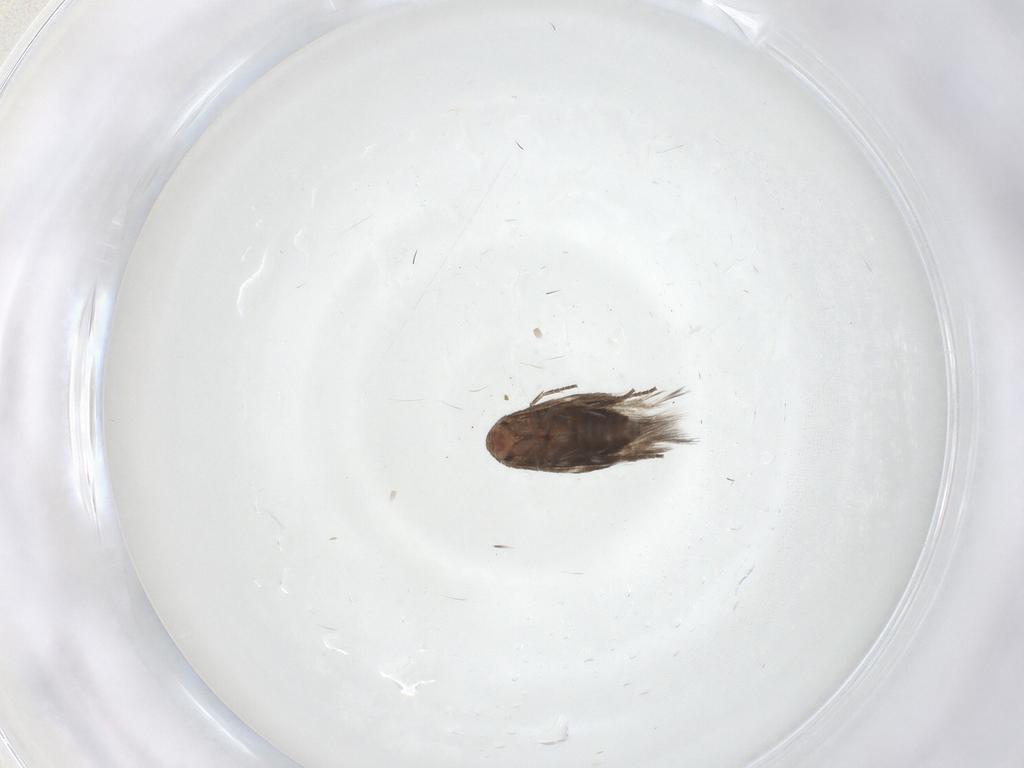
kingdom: Animalia
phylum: Arthropoda
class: Insecta
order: Lepidoptera
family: Lyonetiidae
